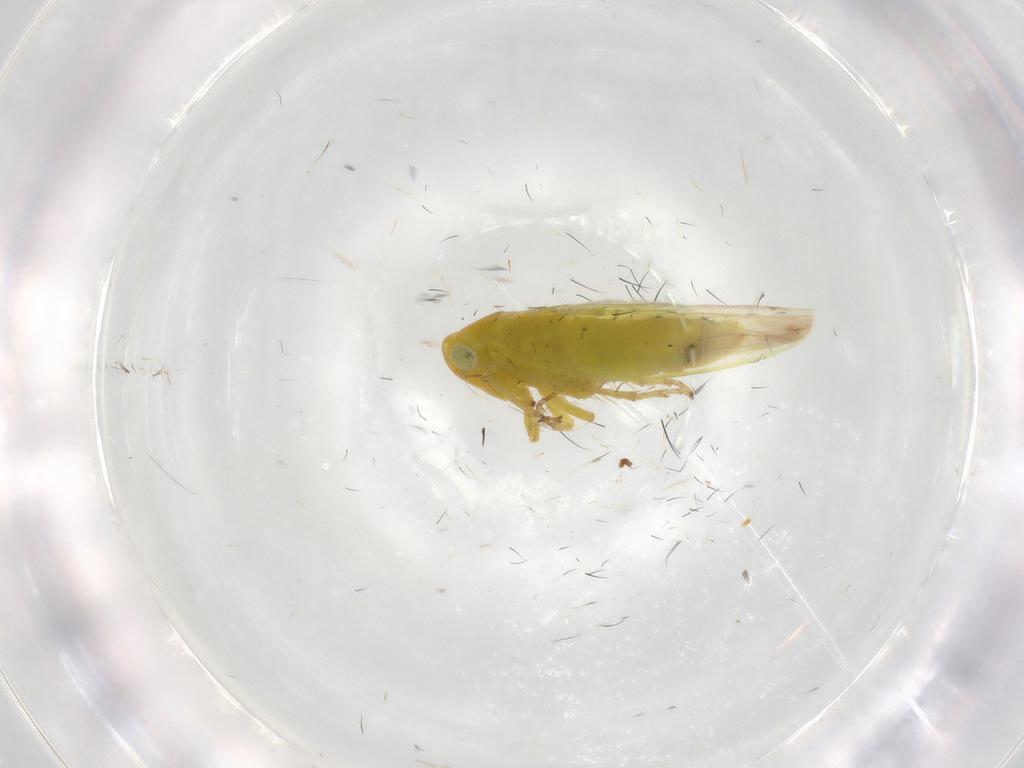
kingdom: Animalia
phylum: Arthropoda
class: Insecta
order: Hemiptera
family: Cicadellidae
